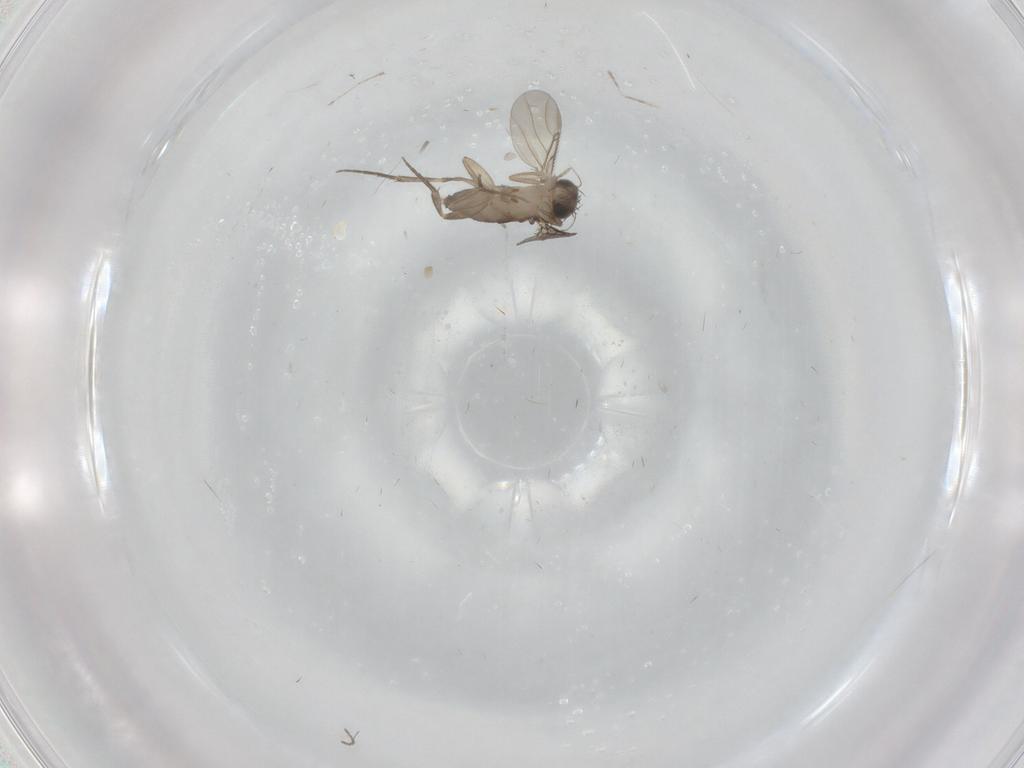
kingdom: Animalia
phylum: Arthropoda
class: Insecta
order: Diptera
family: Phoridae
